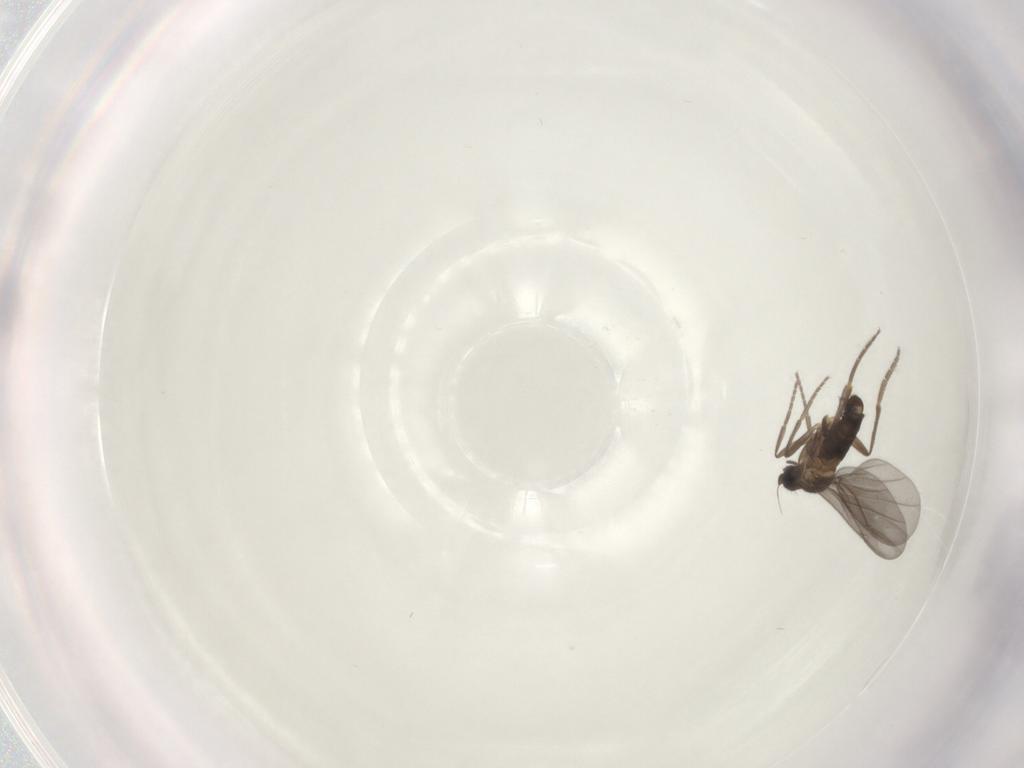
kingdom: Animalia
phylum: Arthropoda
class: Insecta
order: Diptera
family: Phoridae
